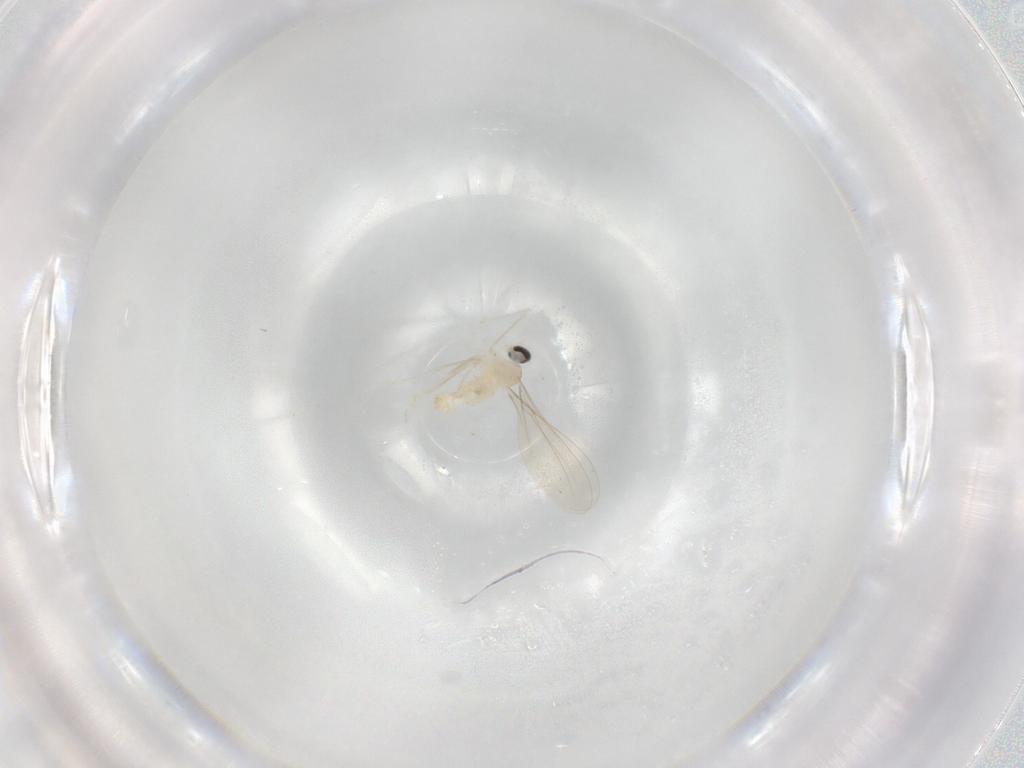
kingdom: Animalia
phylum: Arthropoda
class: Insecta
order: Diptera
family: Cecidomyiidae
